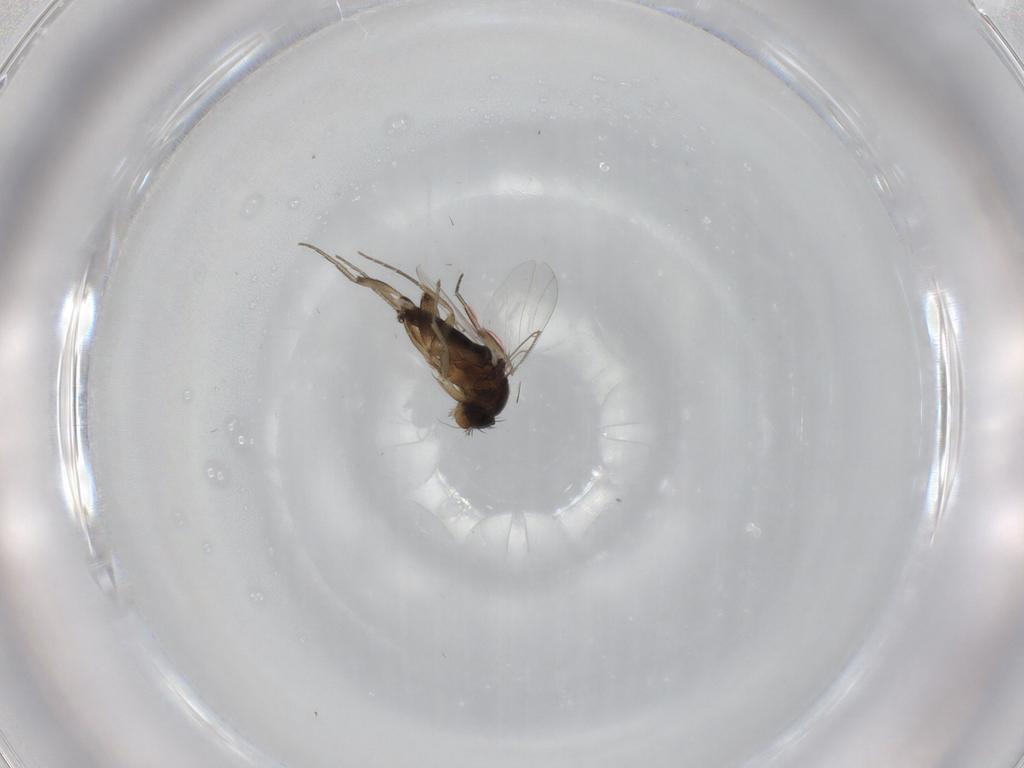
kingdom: Animalia
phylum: Arthropoda
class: Insecta
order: Diptera
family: Phoridae
